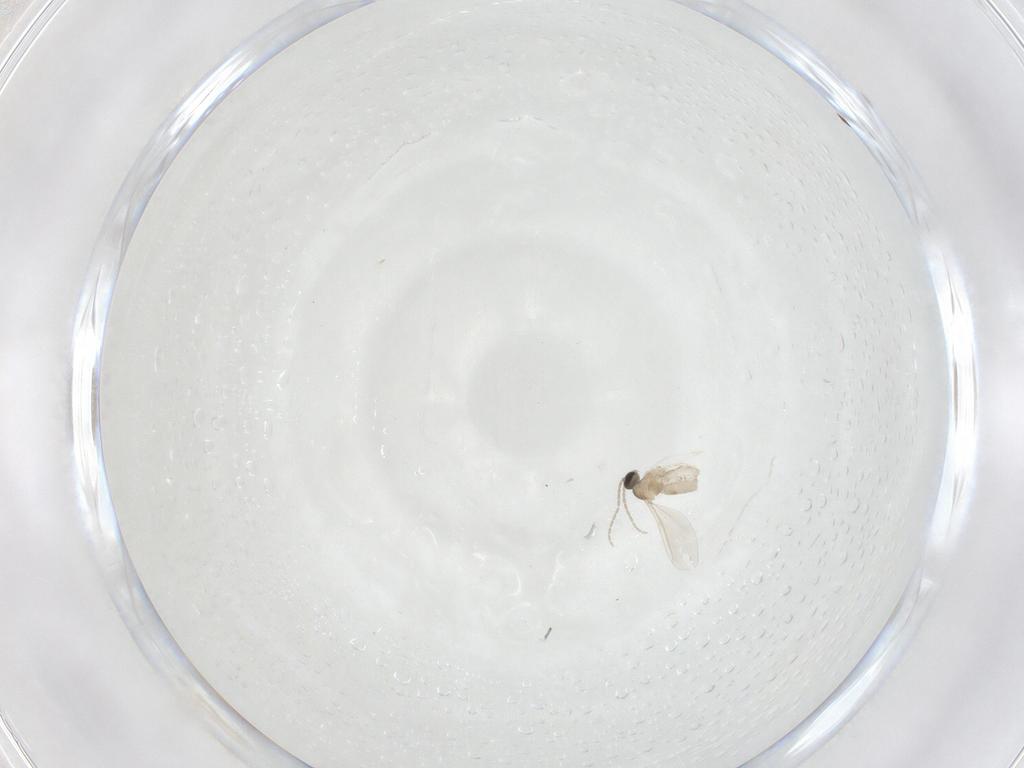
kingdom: Animalia
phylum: Arthropoda
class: Insecta
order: Diptera
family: Cecidomyiidae
